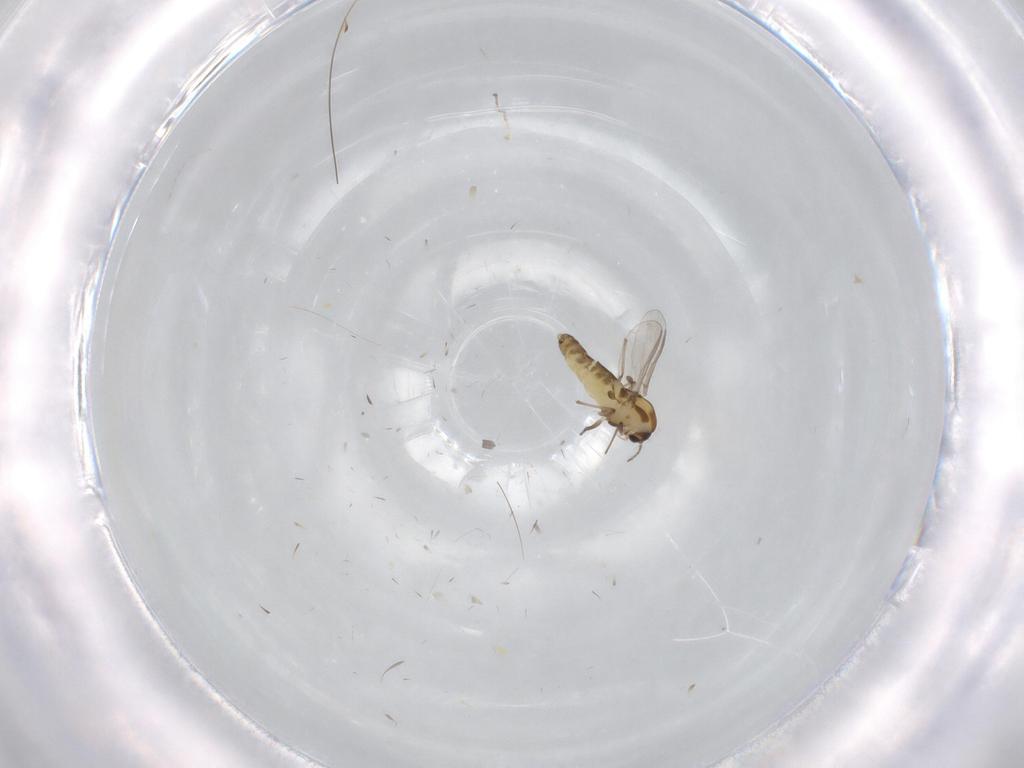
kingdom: Animalia
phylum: Arthropoda
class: Insecta
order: Diptera
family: Chironomidae
